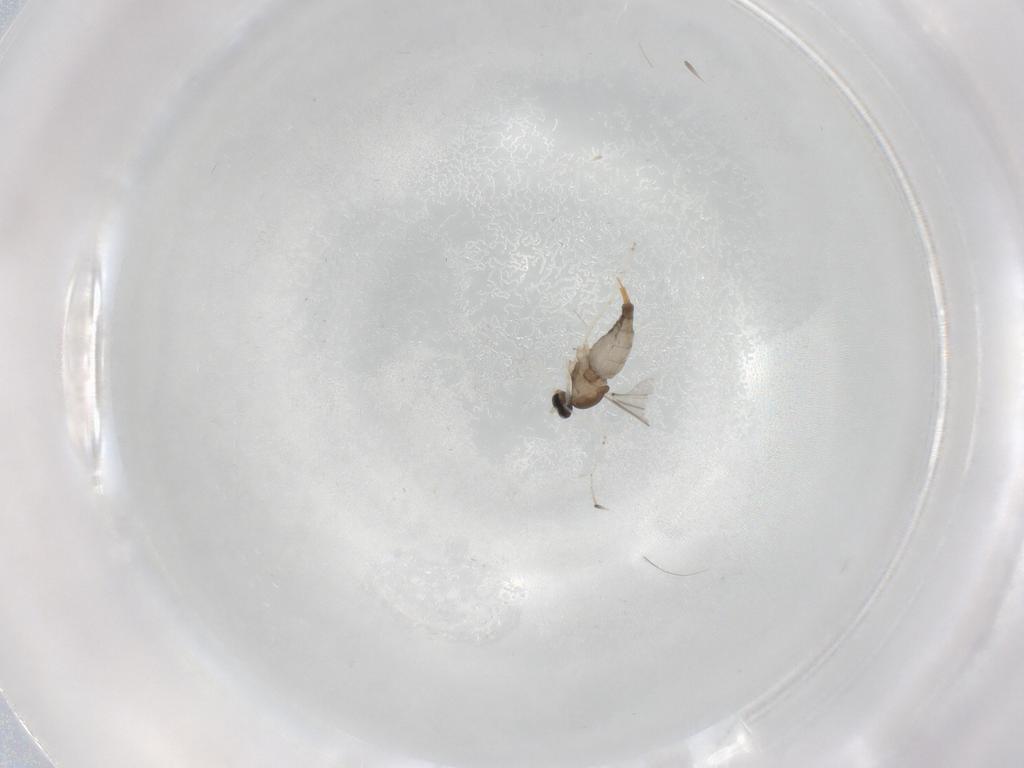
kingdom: Animalia
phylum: Arthropoda
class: Insecta
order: Diptera
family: Cecidomyiidae
